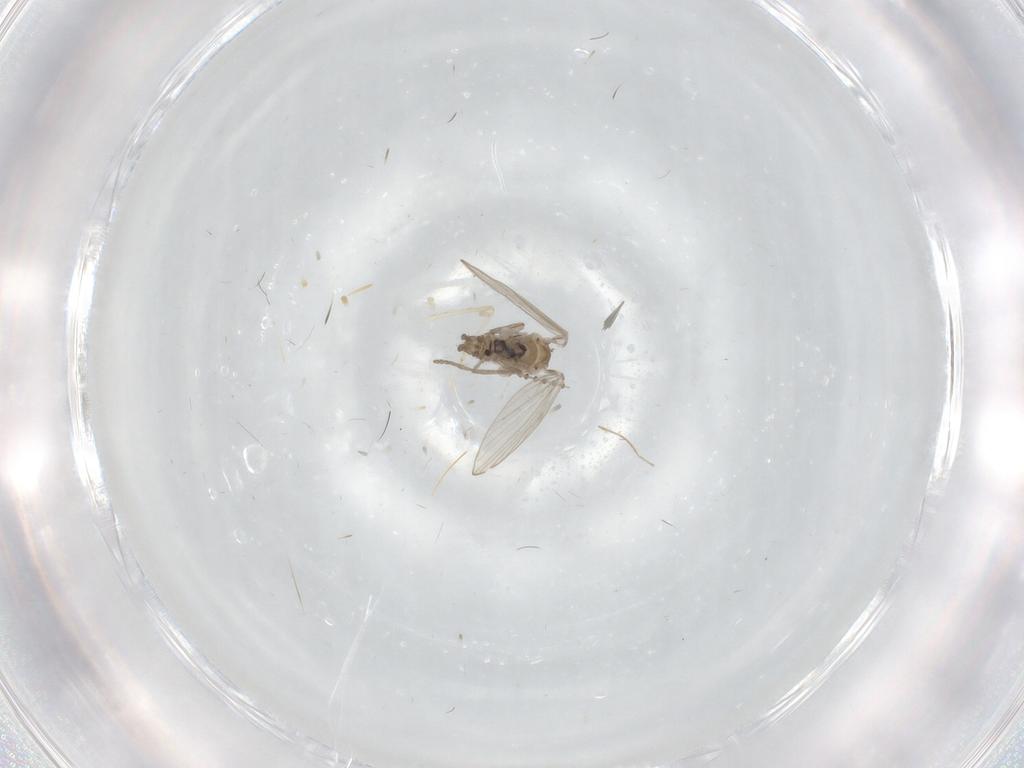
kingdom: Animalia
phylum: Arthropoda
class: Insecta
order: Diptera
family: Psychodidae
